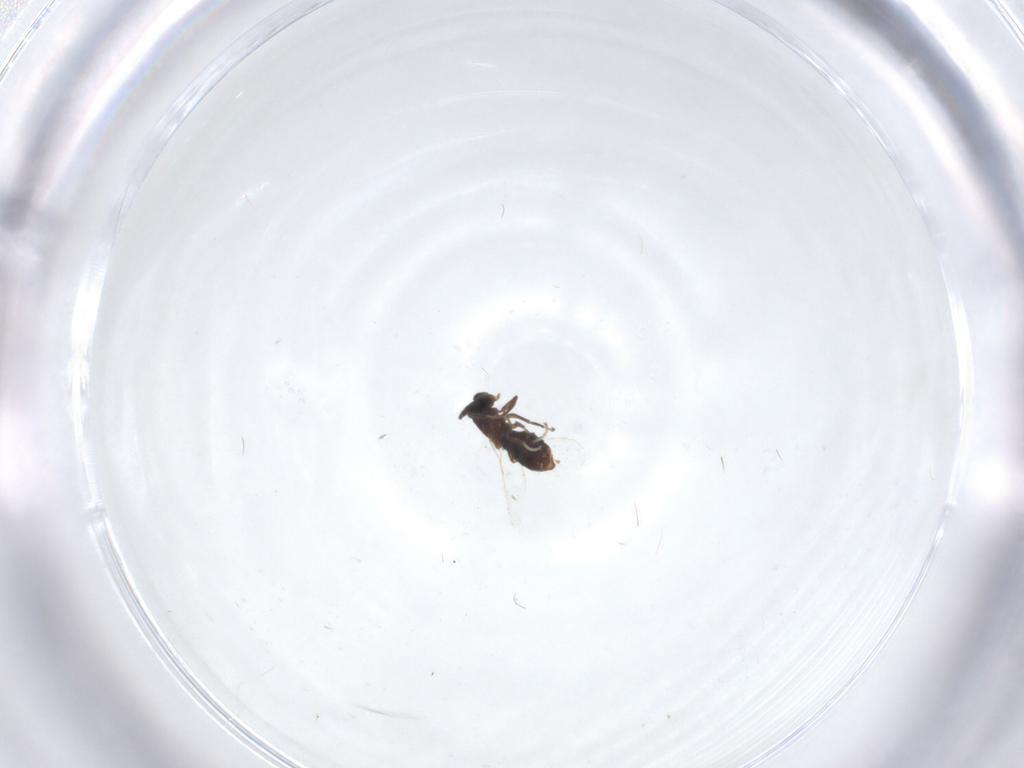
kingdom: Animalia
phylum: Arthropoda
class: Insecta
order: Diptera
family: Scatopsidae
